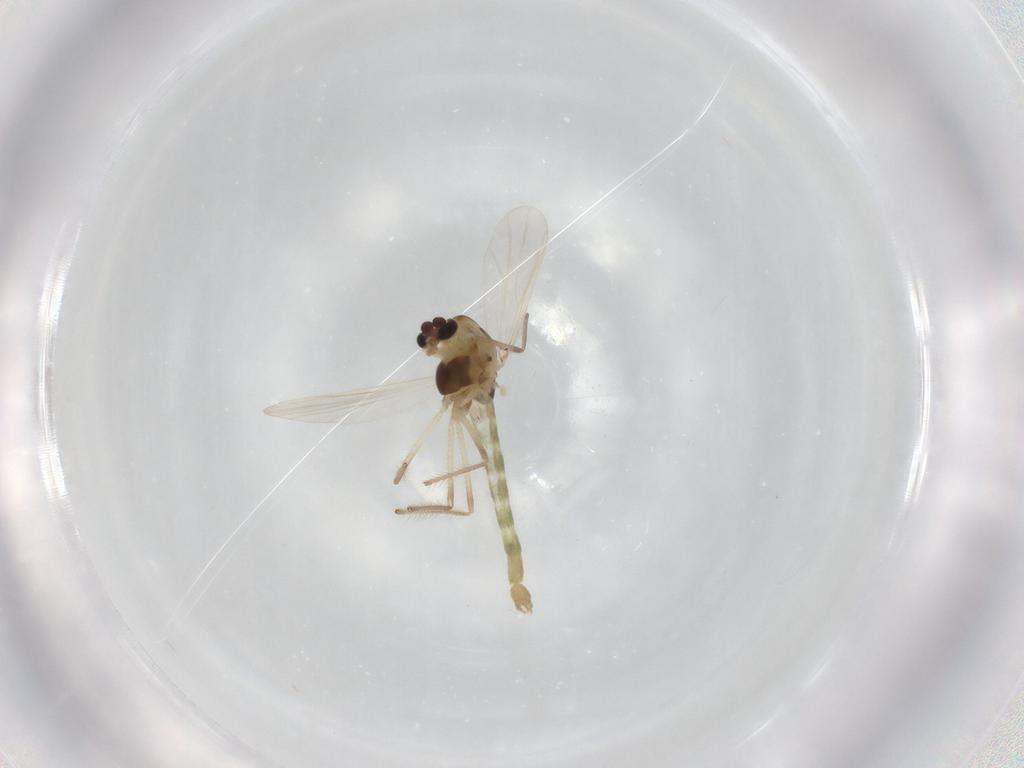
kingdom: Animalia
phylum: Arthropoda
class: Insecta
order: Diptera
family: Chironomidae
